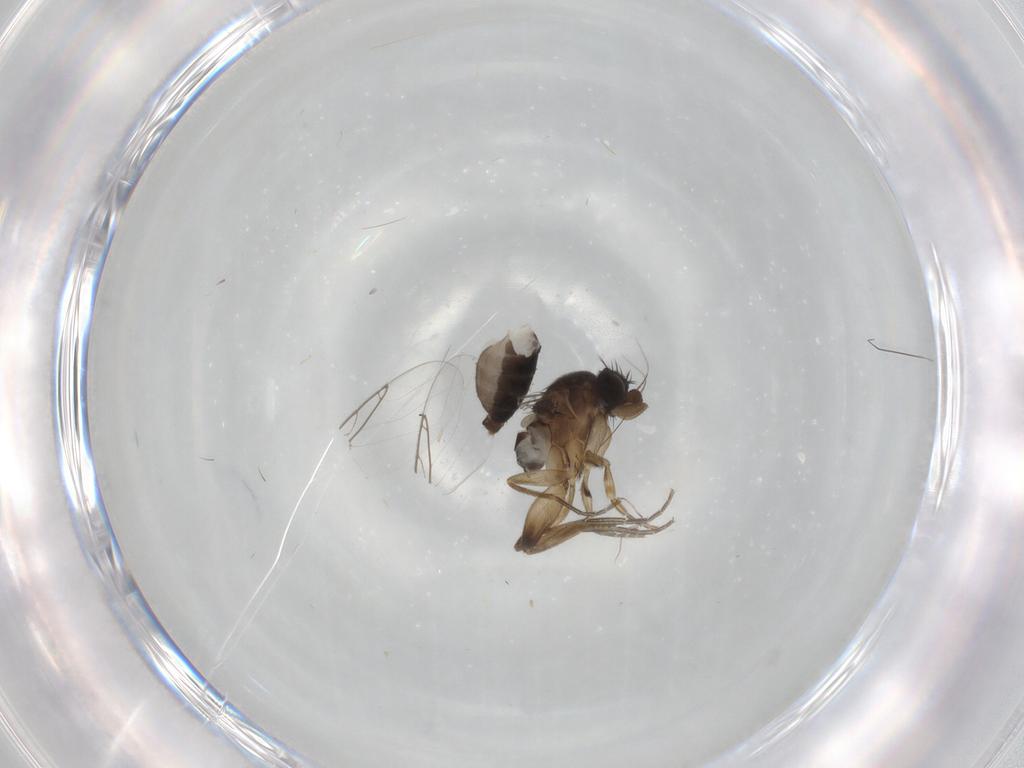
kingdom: Animalia
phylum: Arthropoda
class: Insecta
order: Diptera
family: Phoridae
